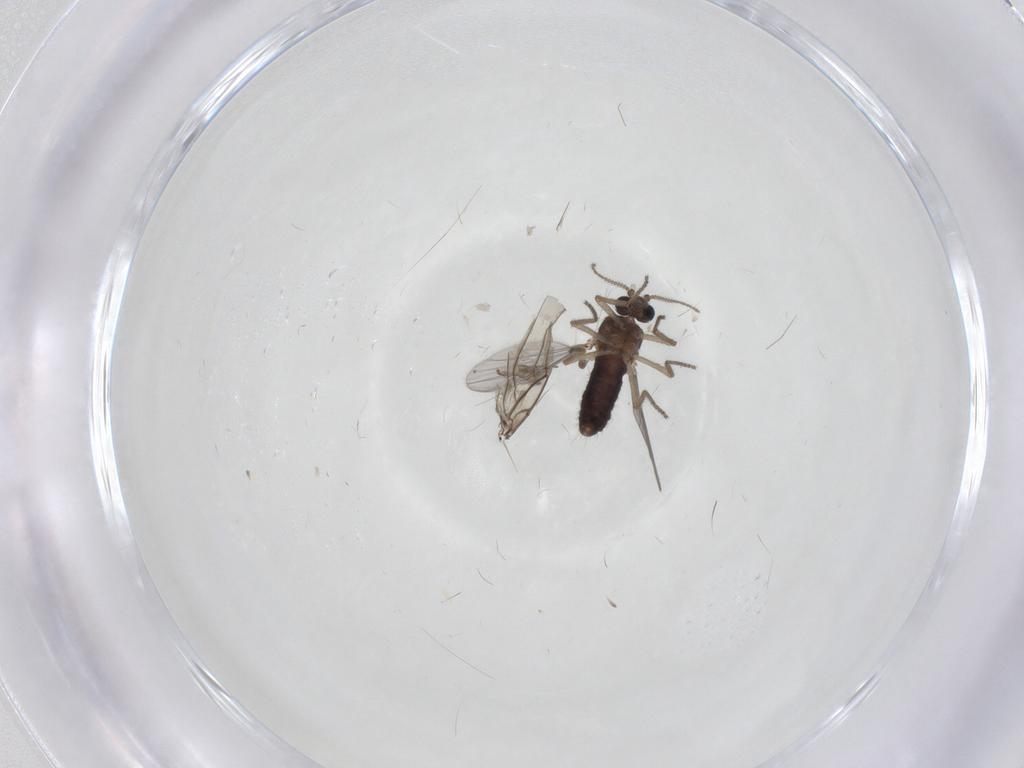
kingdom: Animalia
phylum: Arthropoda
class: Insecta
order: Diptera
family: Ceratopogonidae
